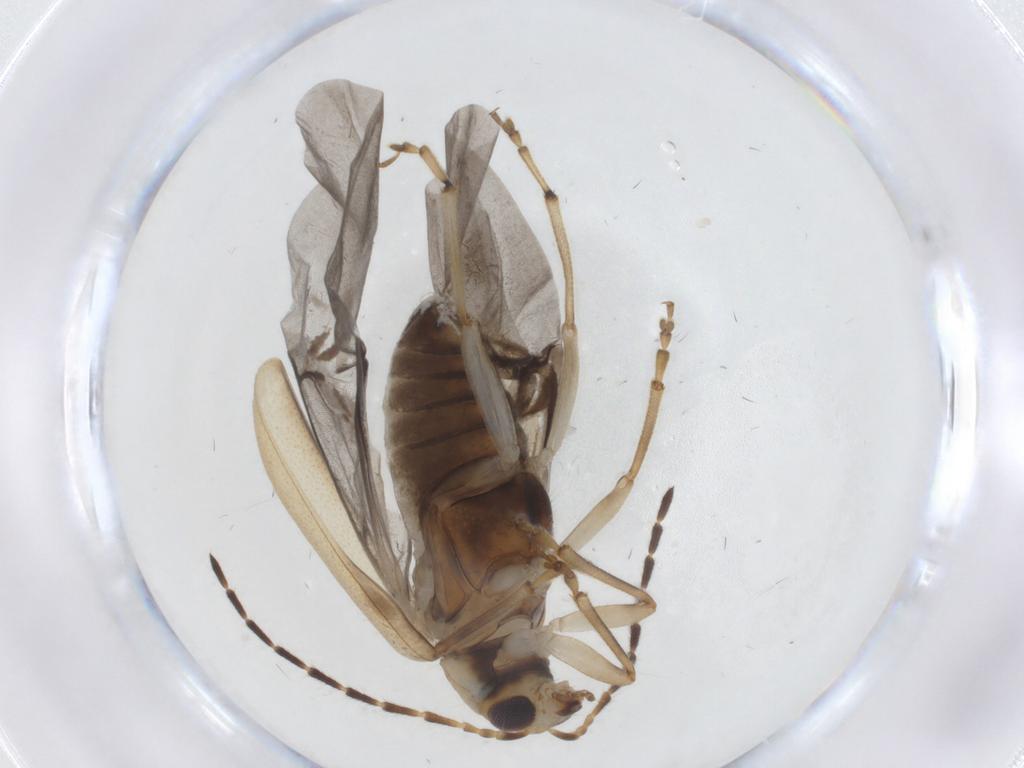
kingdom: Animalia
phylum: Arthropoda
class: Insecta
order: Coleoptera
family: Chrysomelidae
